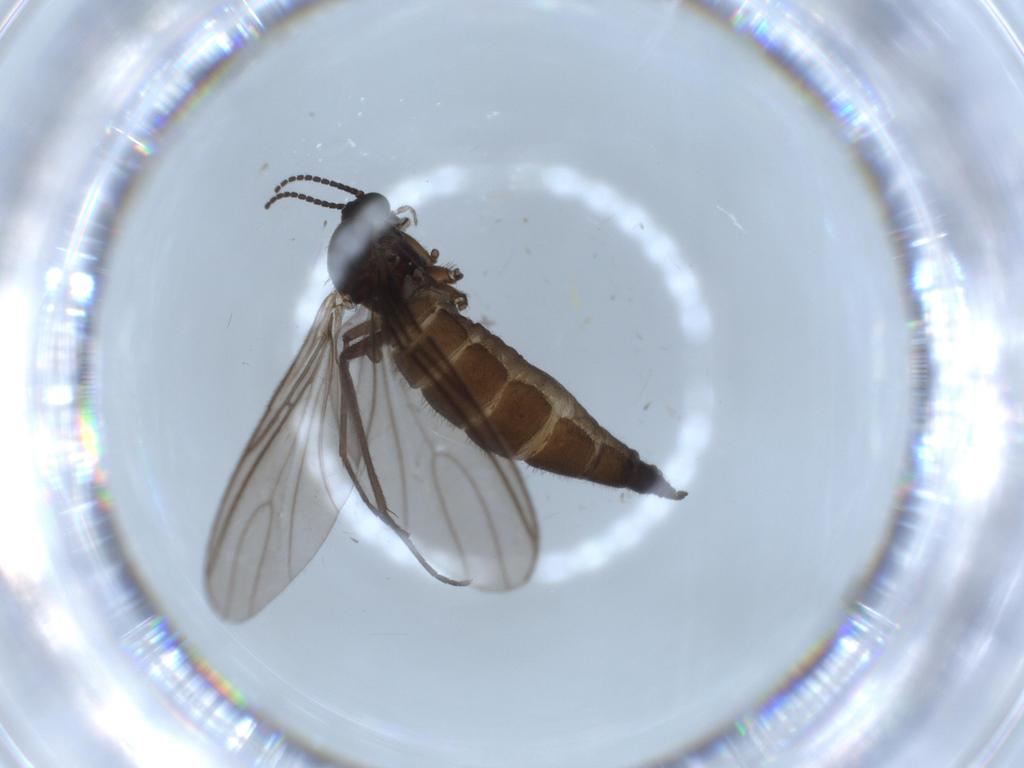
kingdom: Animalia
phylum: Arthropoda
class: Insecta
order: Diptera
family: Sciaridae
